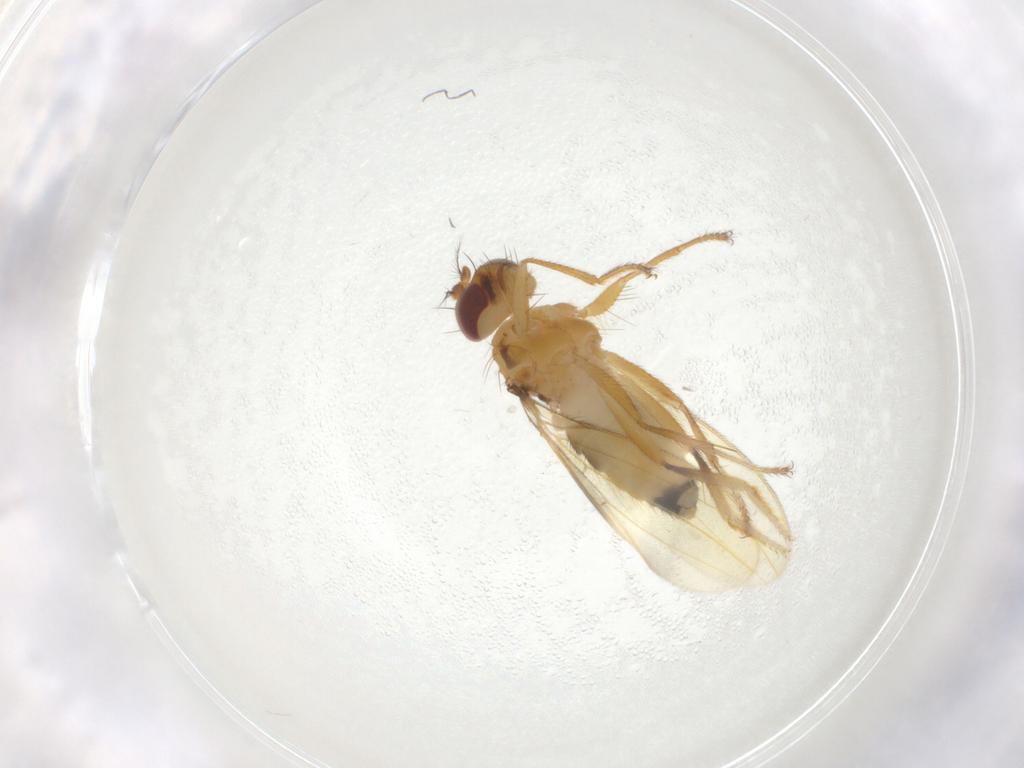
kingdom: Animalia
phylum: Arthropoda
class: Insecta
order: Diptera
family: Periscelididae
